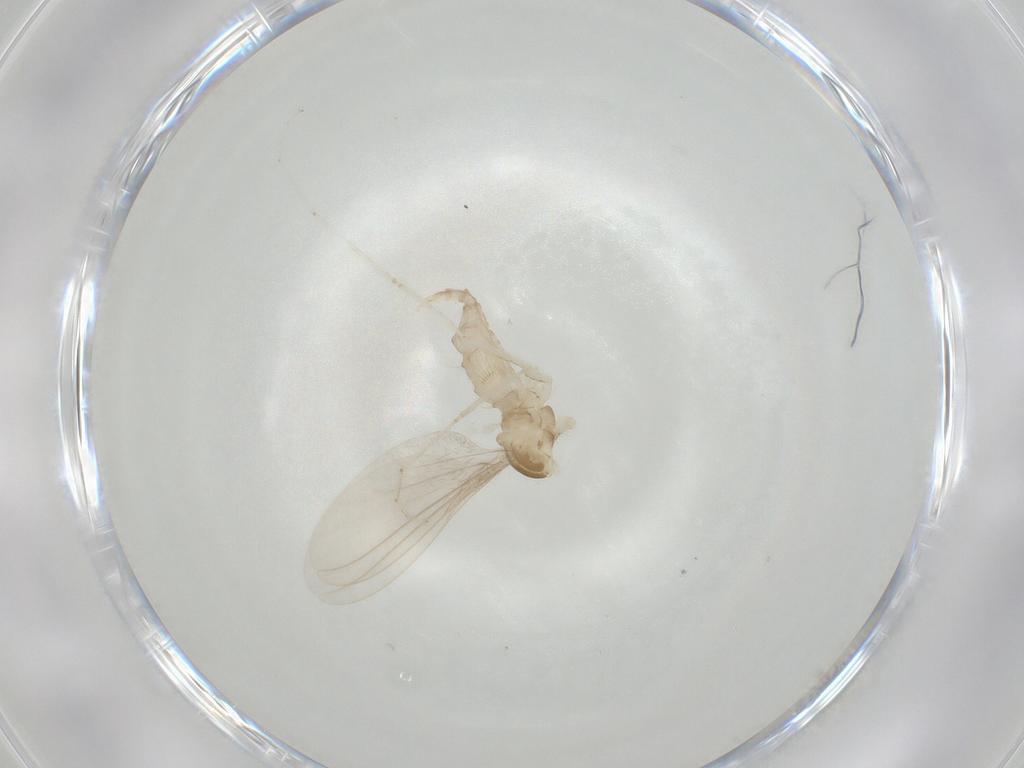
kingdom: Animalia
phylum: Arthropoda
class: Insecta
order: Diptera
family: Cecidomyiidae
